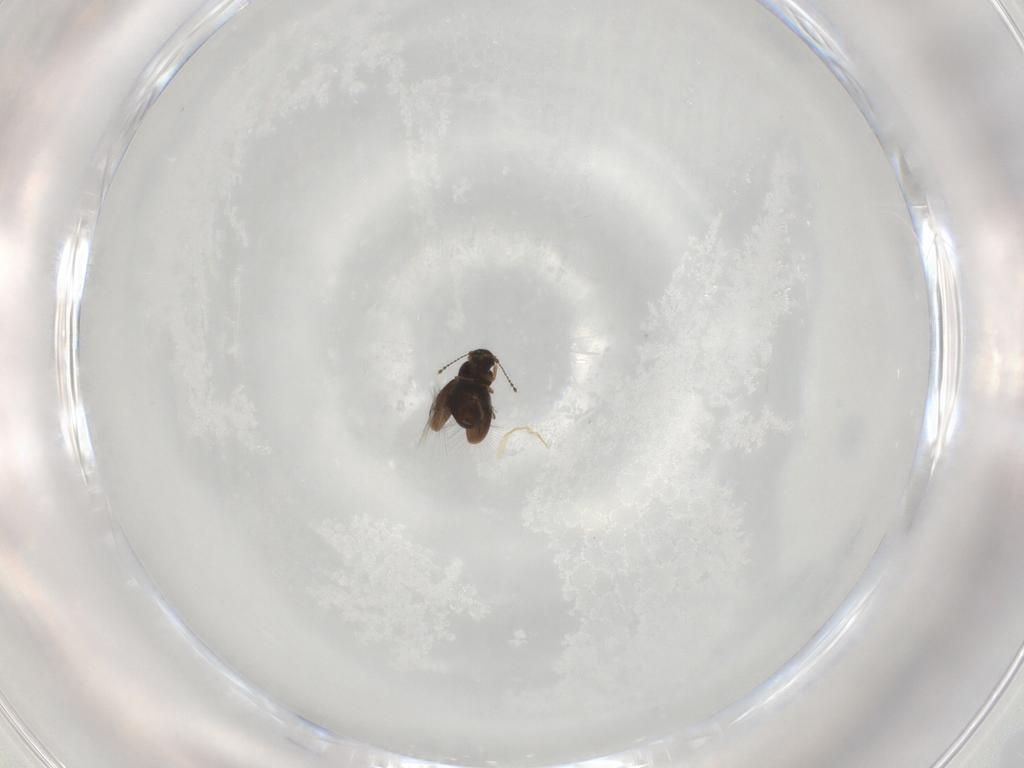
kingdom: Animalia
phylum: Arthropoda
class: Insecta
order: Coleoptera
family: Ptiliidae
